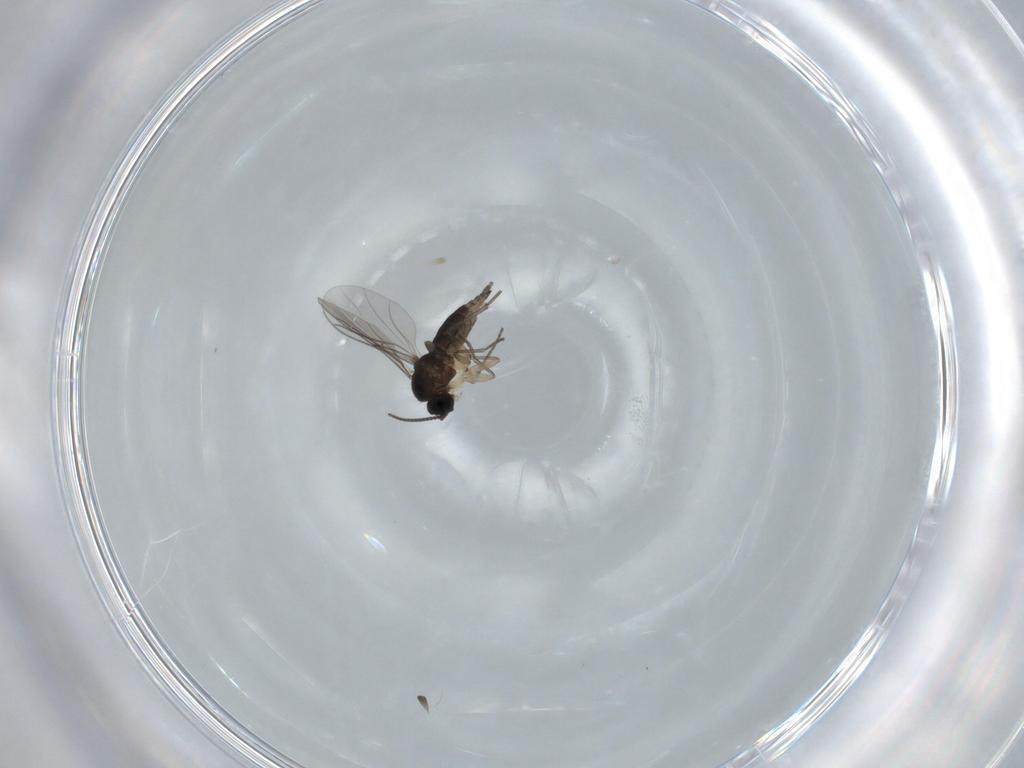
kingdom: Animalia
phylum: Arthropoda
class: Insecta
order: Diptera
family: Sciaridae
